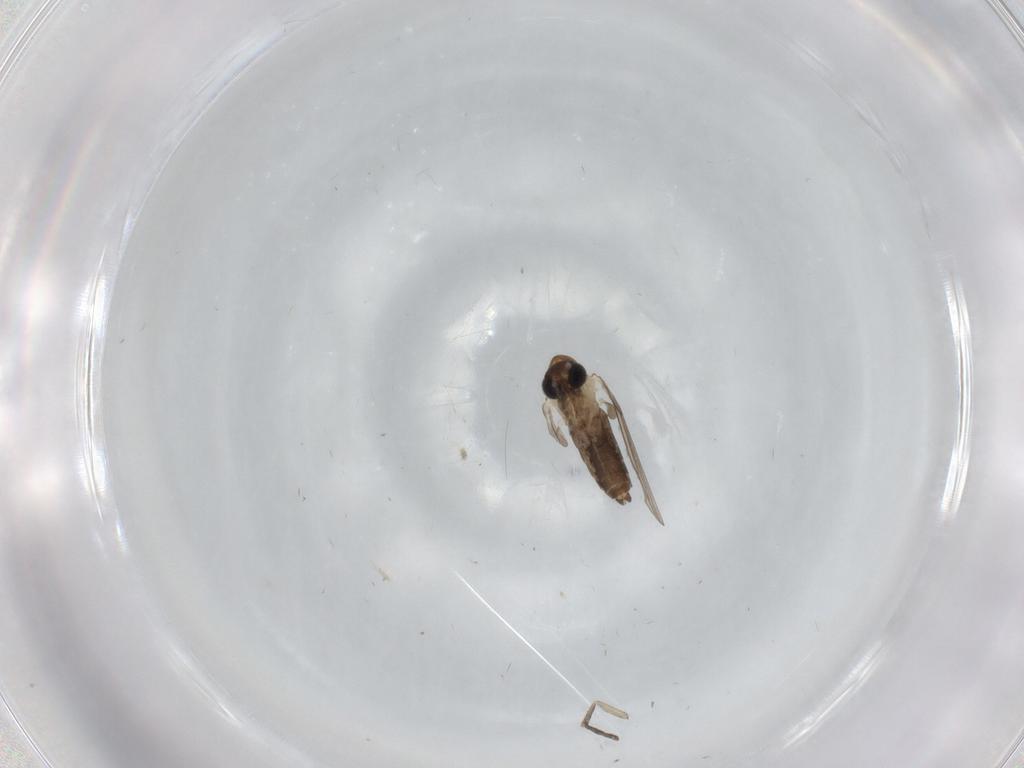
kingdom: Animalia
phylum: Arthropoda
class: Insecta
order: Diptera
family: Psychodidae
